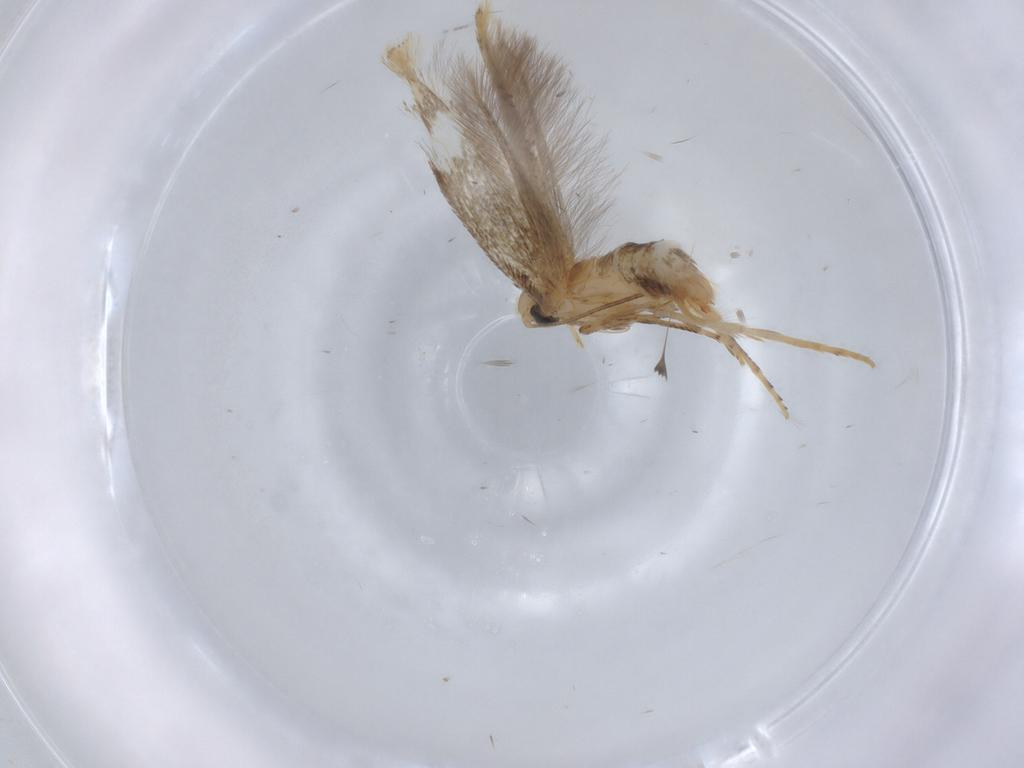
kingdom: Animalia
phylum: Arthropoda
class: Insecta
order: Lepidoptera
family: Tischeriidae
